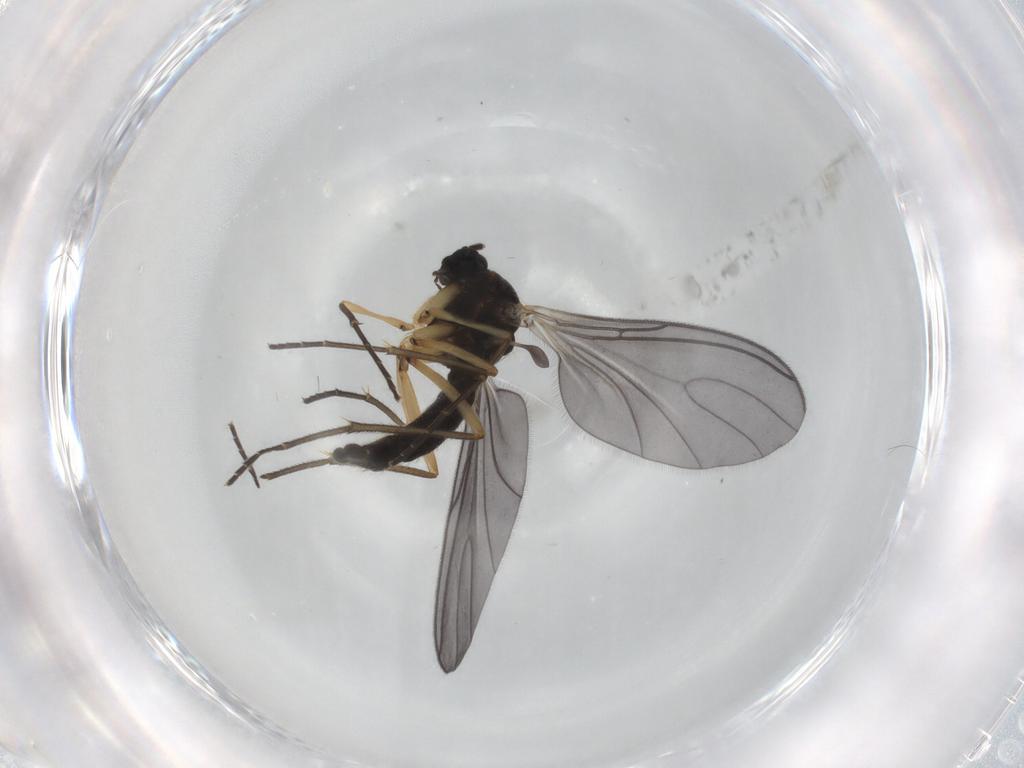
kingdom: Animalia
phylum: Arthropoda
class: Insecta
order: Diptera
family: Sciaridae
